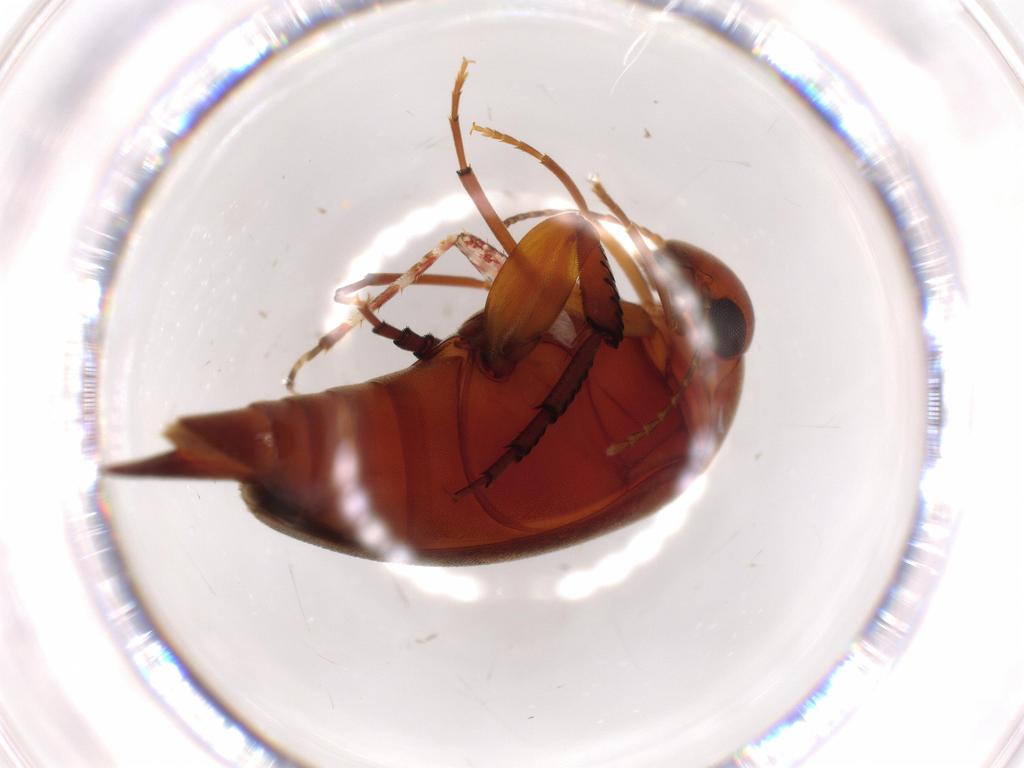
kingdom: Animalia
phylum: Arthropoda
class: Insecta
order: Coleoptera
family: Mordellidae
